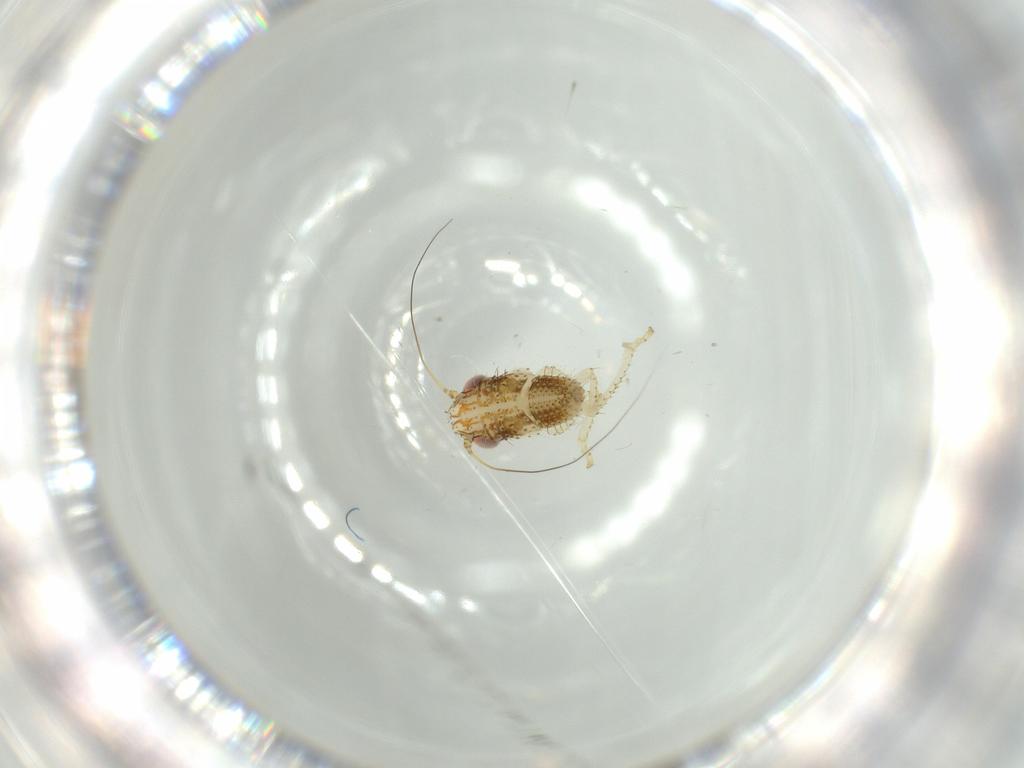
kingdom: Animalia
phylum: Arthropoda
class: Insecta
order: Hemiptera
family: Cicadellidae
